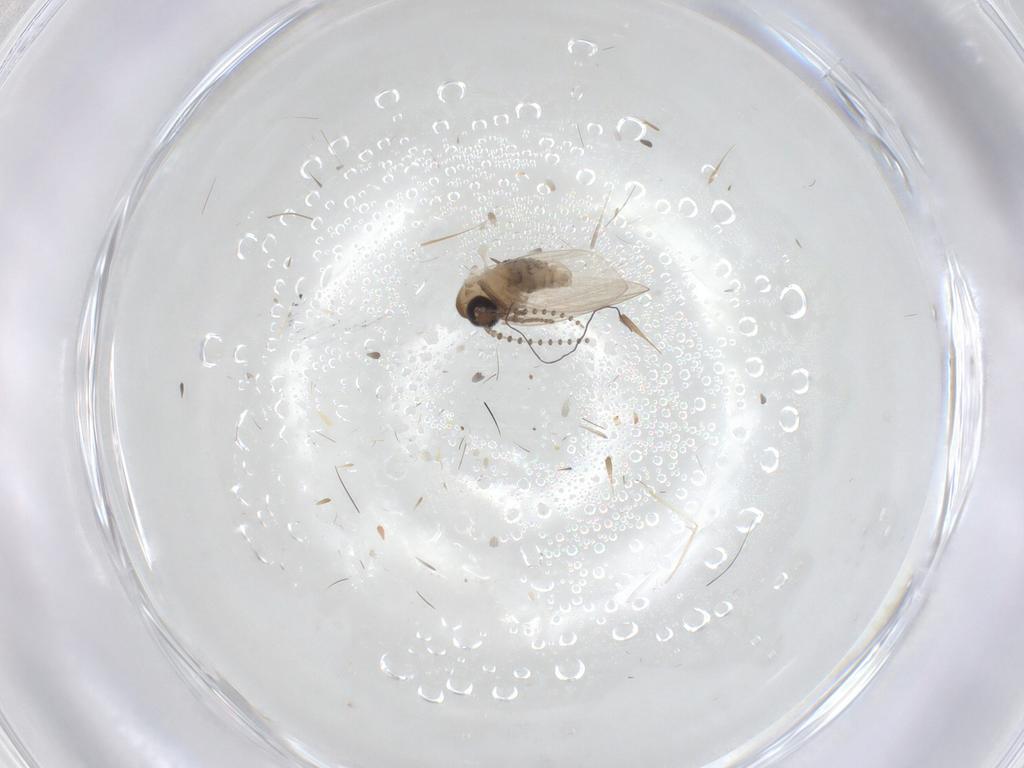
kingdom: Animalia
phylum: Arthropoda
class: Insecta
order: Diptera
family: Psychodidae
